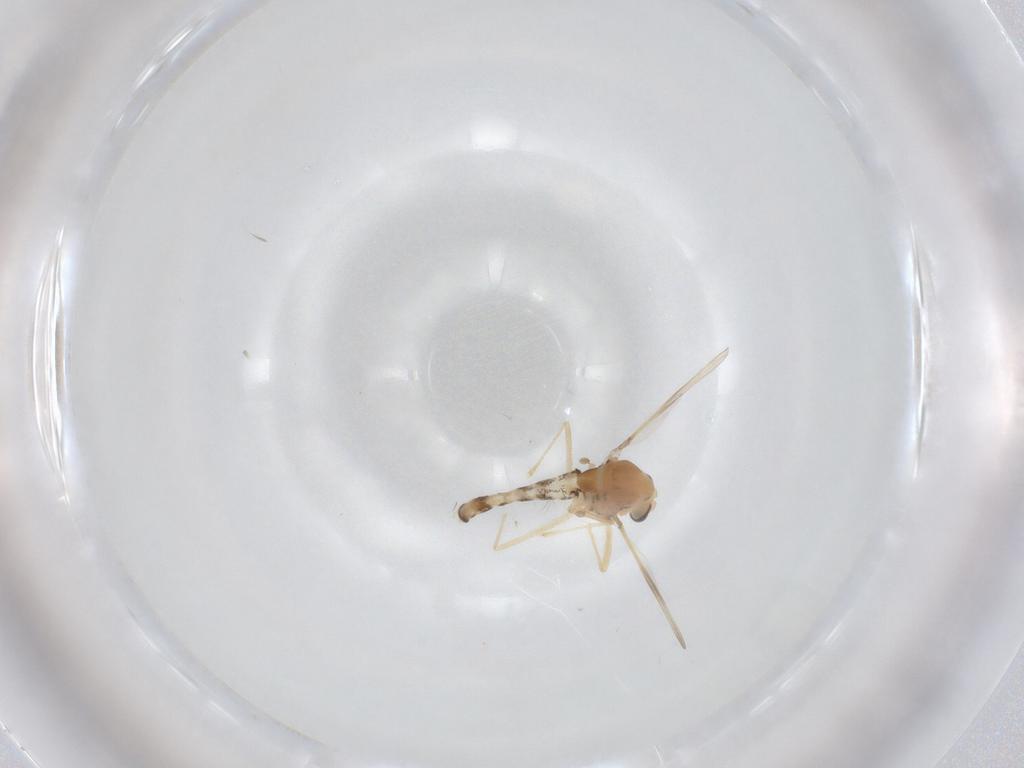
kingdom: Animalia
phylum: Arthropoda
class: Insecta
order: Diptera
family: Chironomidae
